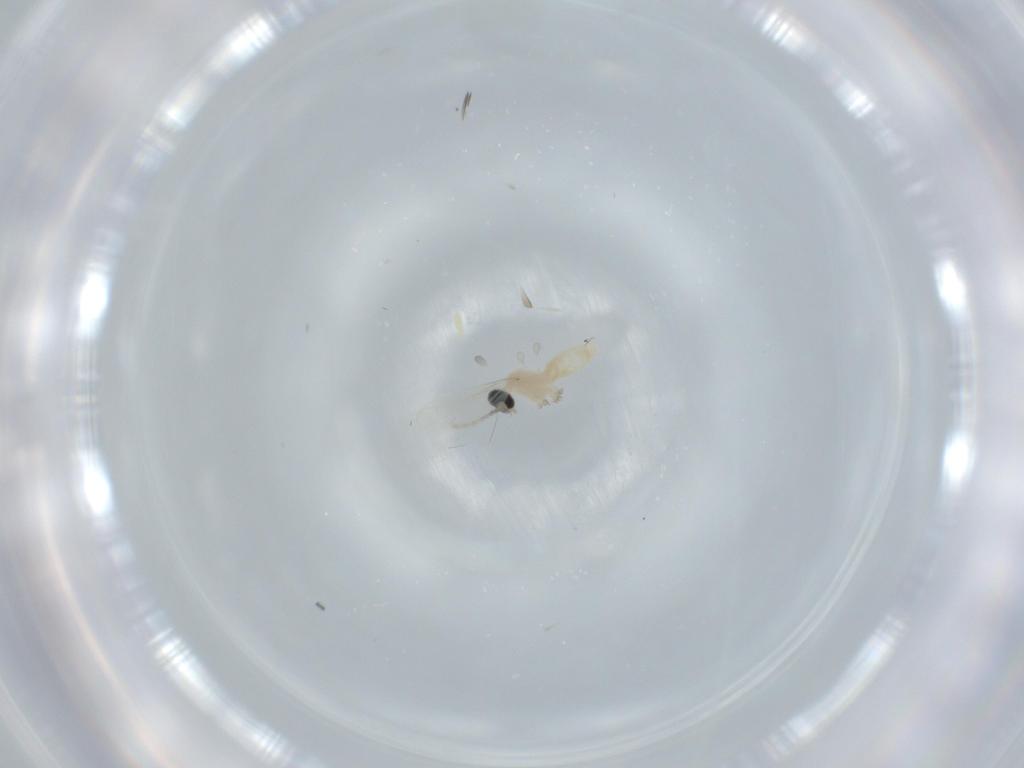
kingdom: Animalia
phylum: Arthropoda
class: Insecta
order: Diptera
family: Cecidomyiidae
